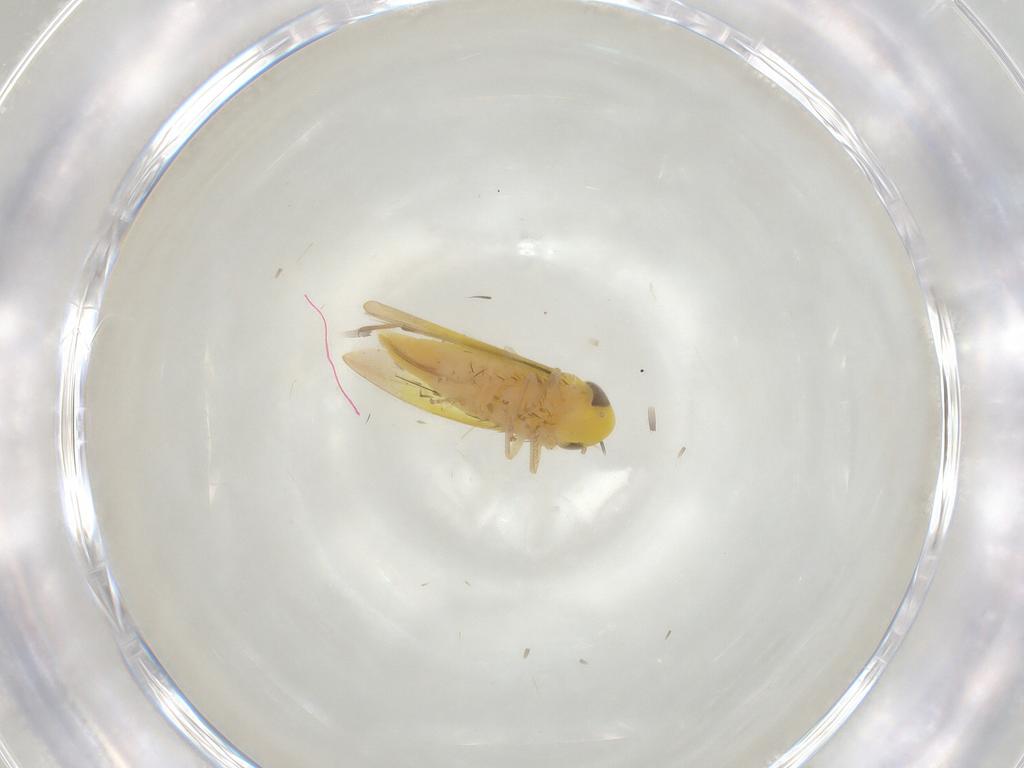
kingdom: Animalia
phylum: Arthropoda
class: Insecta
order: Hemiptera
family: Cicadellidae
